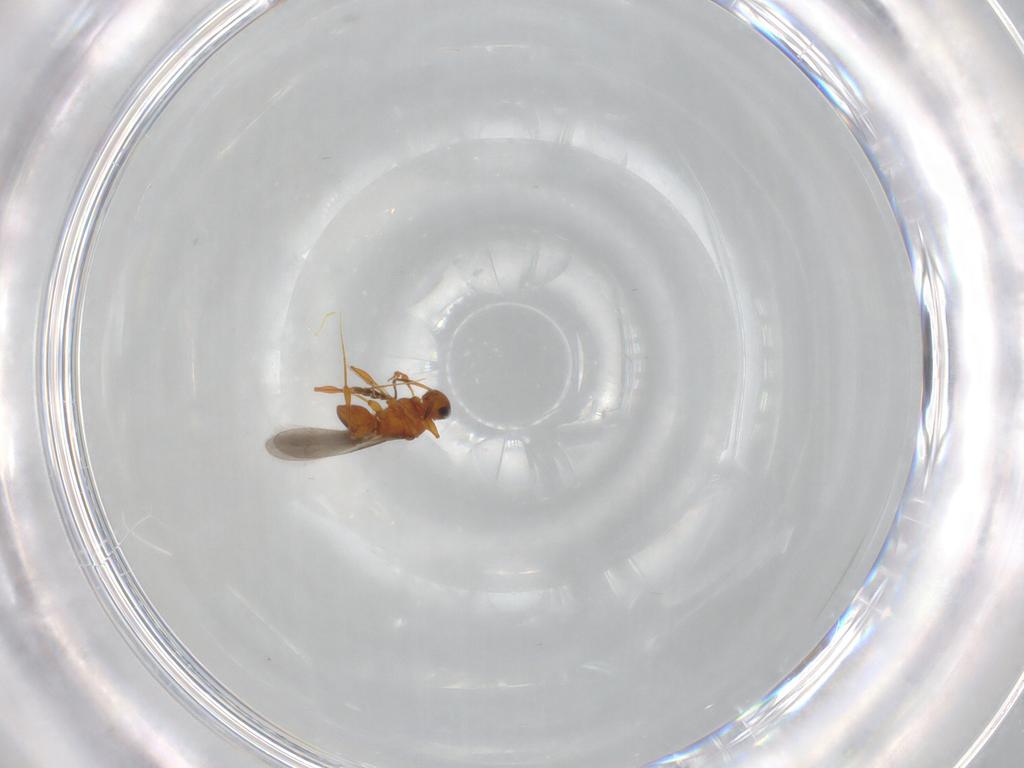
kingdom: Animalia
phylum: Arthropoda
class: Insecta
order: Hymenoptera
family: Platygastridae
